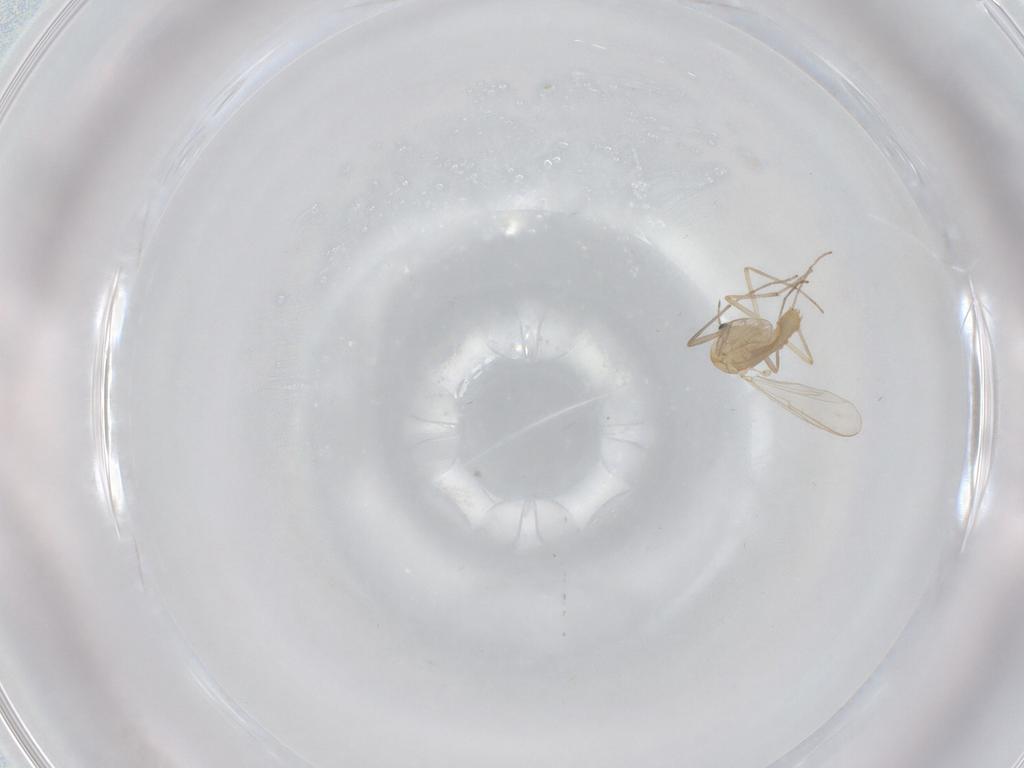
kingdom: Animalia
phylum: Arthropoda
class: Insecta
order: Diptera
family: Chironomidae
